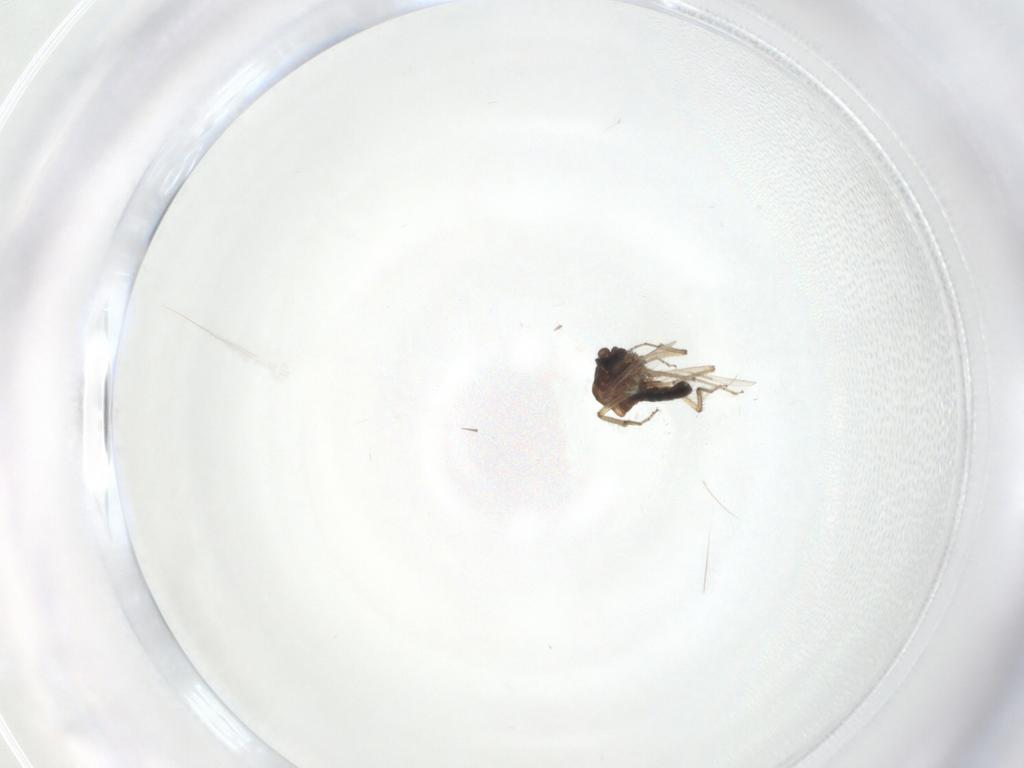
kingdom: Animalia
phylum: Arthropoda
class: Insecta
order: Diptera
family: Ceratopogonidae
